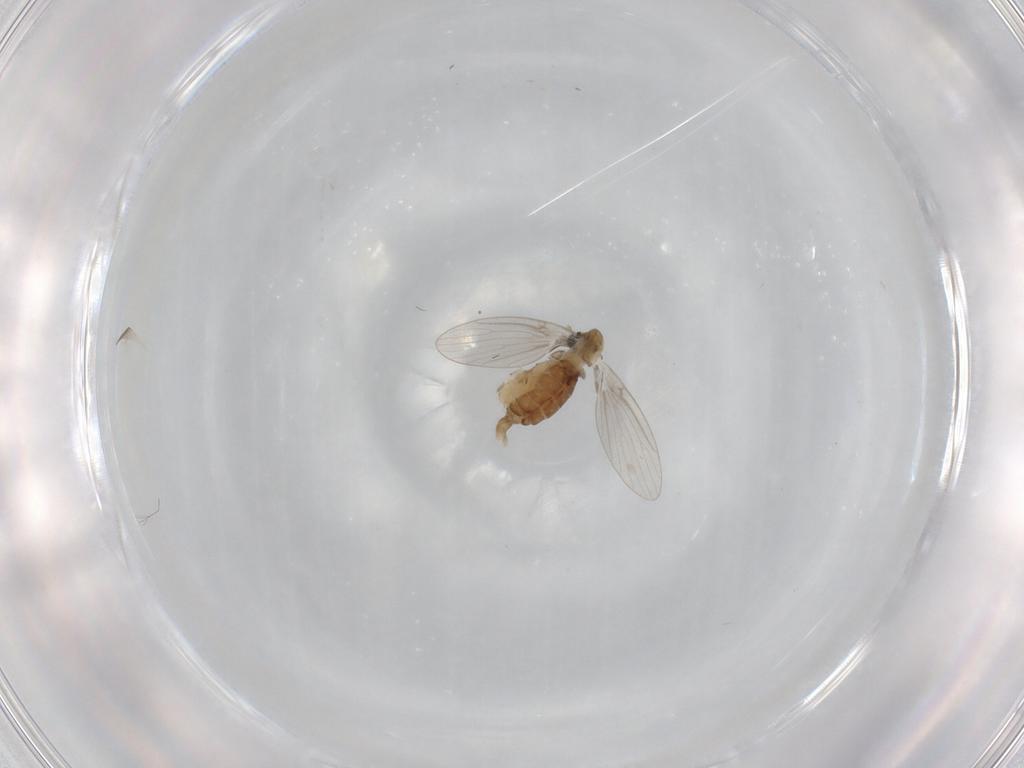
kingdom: Animalia
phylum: Arthropoda
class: Insecta
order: Diptera
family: Psychodidae
